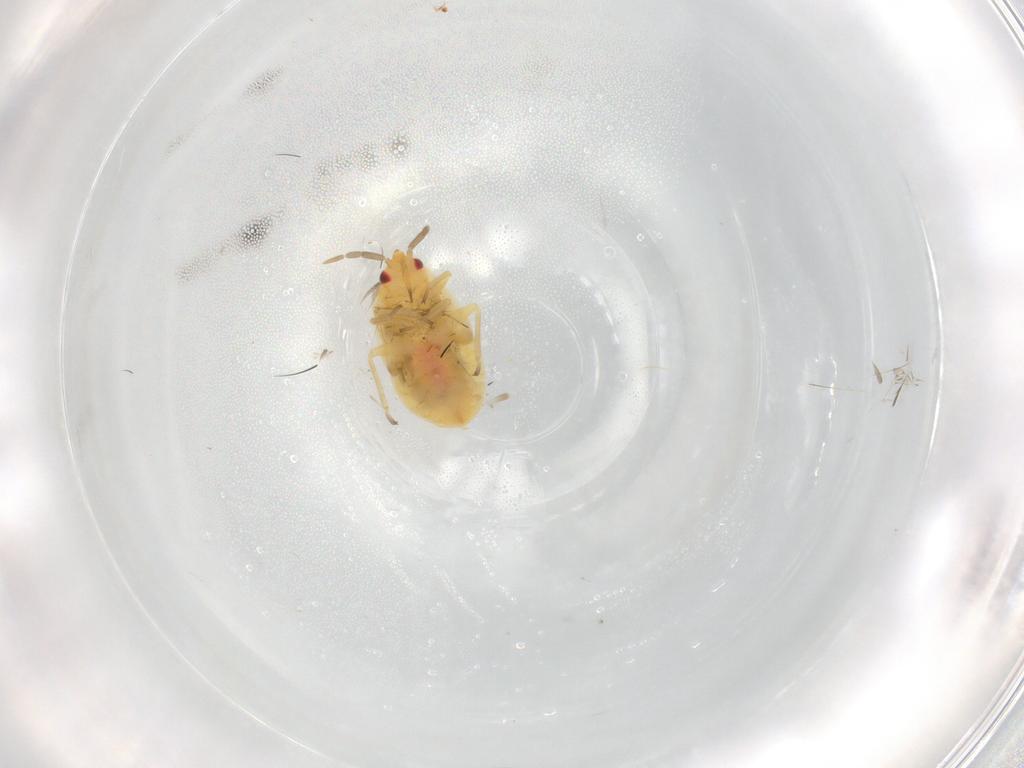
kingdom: Animalia
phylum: Arthropoda
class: Insecta
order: Hemiptera
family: Anthocoridae
